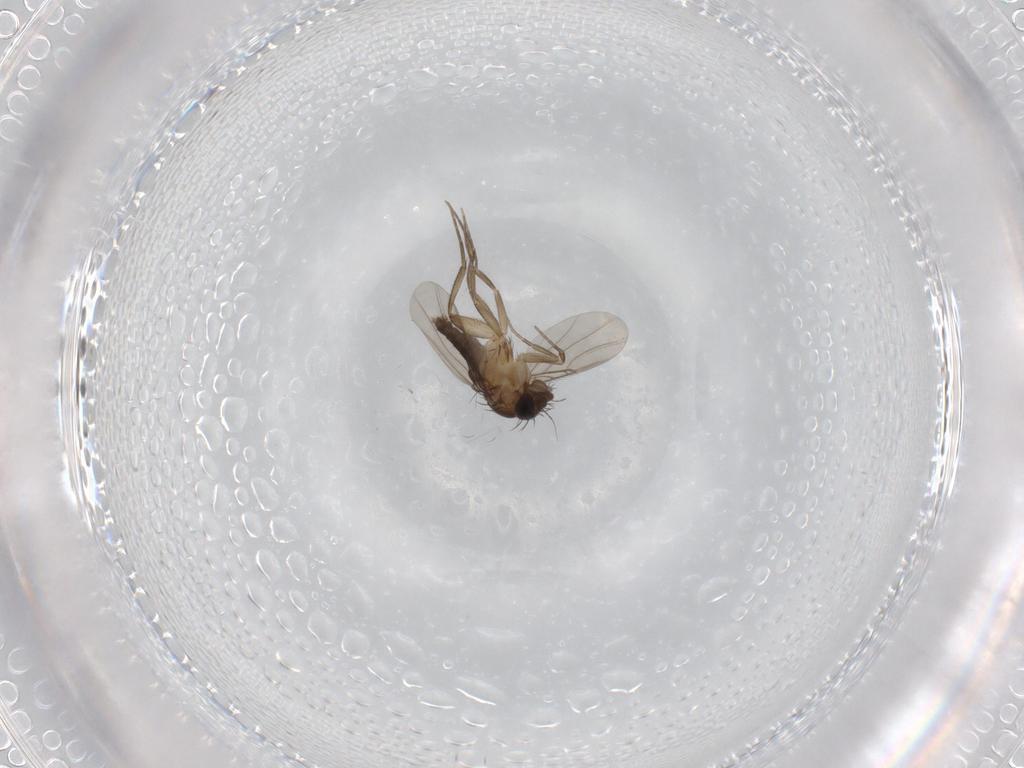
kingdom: Animalia
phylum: Arthropoda
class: Insecta
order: Diptera
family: Phoridae
